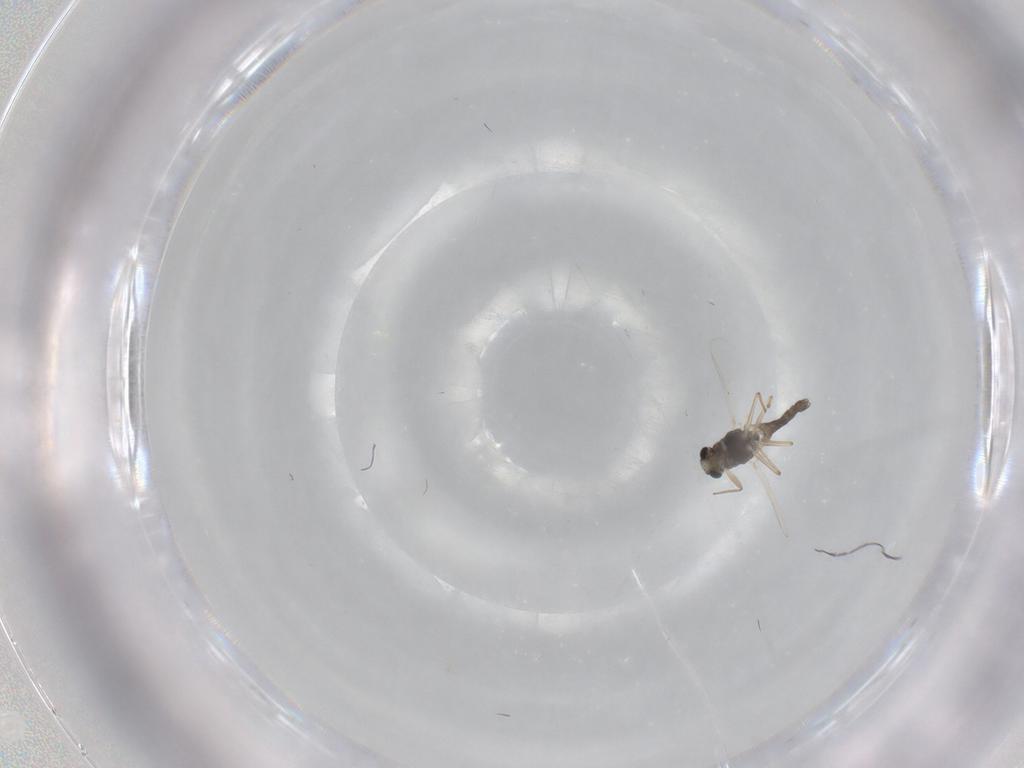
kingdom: Animalia
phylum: Arthropoda
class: Insecta
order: Diptera
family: Chironomidae
